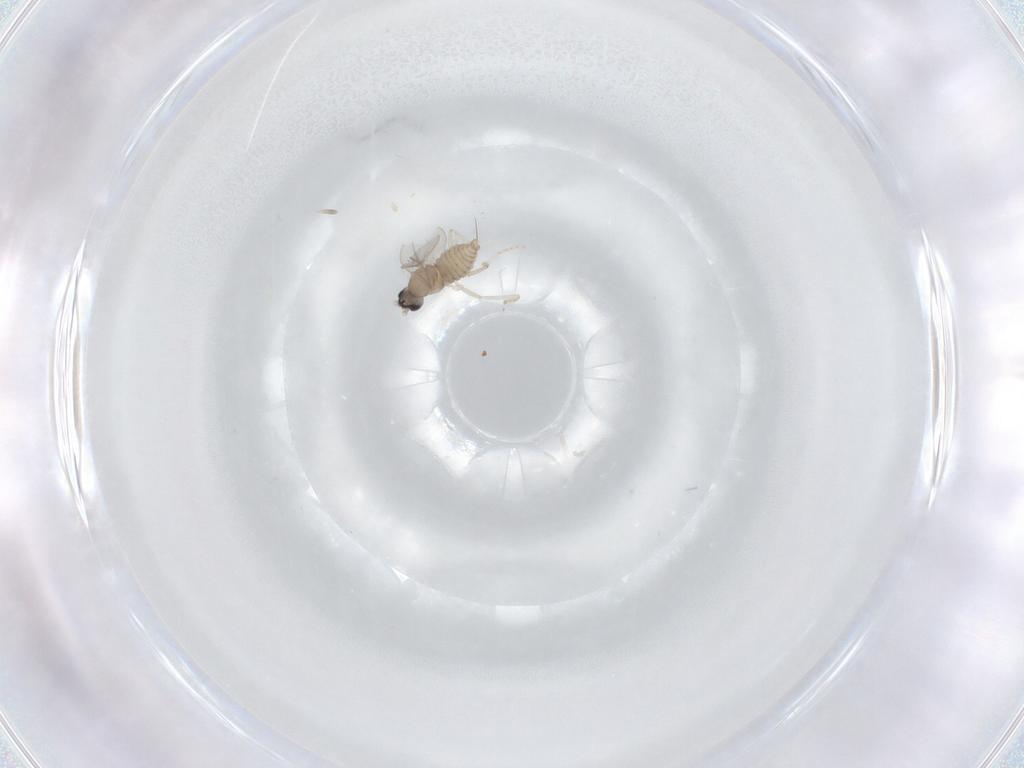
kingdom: Animalia
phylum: Arthropoda
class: Insecta
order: Diptera
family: Cecidomyiidae
